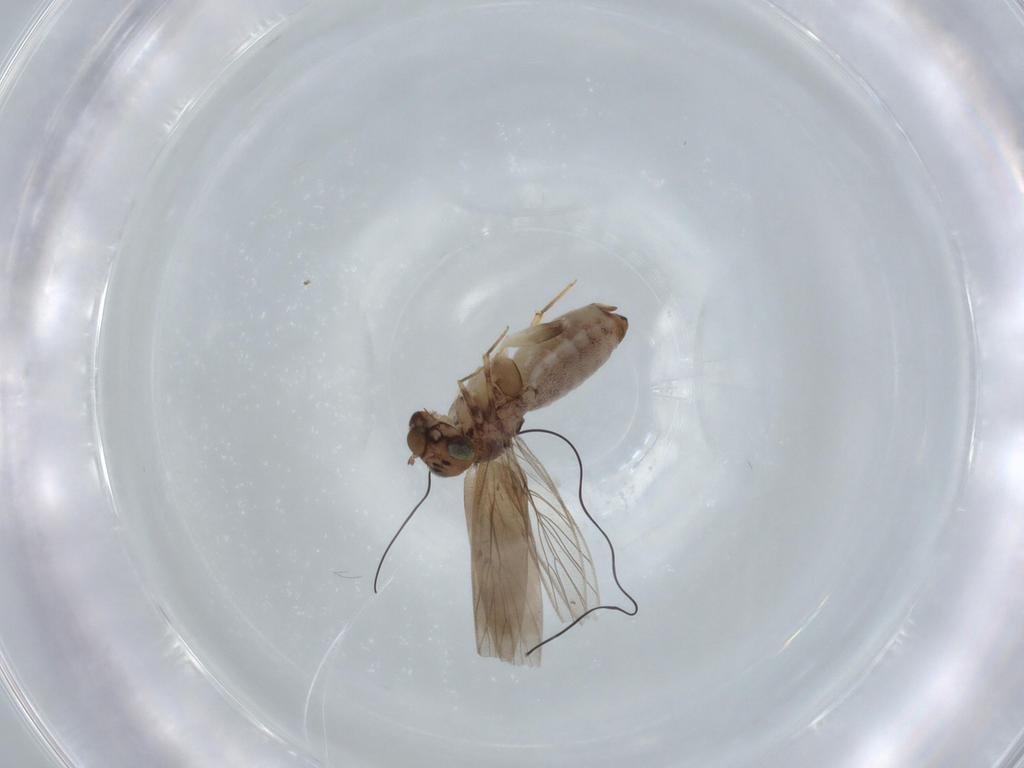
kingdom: Animalia
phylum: Arthropoda
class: Insecta
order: Psocodea
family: Lepidopsocidae
